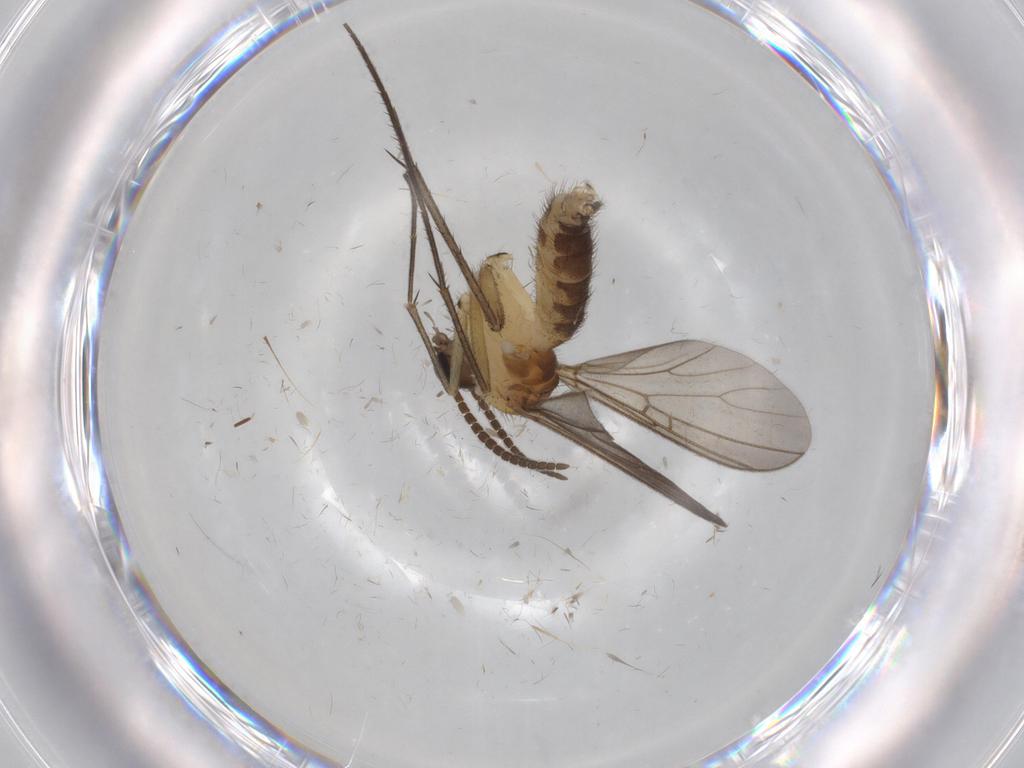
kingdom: Animalia
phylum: Arthropoda
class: Insecta
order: Diptera
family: Mycetophilidae
